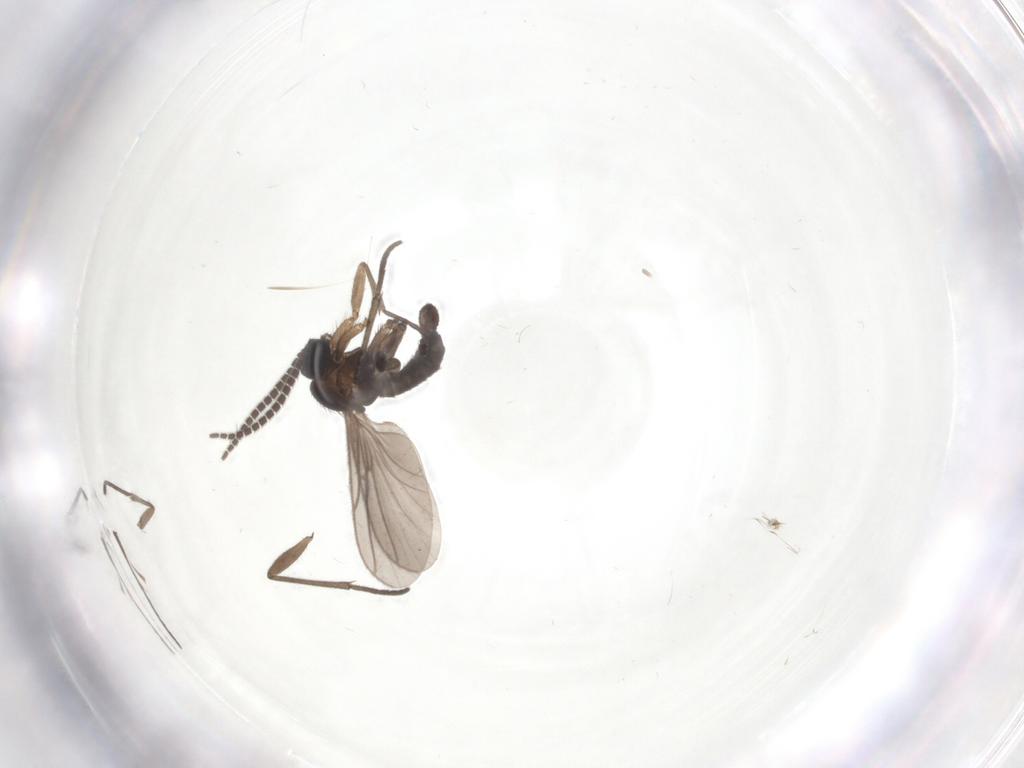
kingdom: Animalia
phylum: Arthropoda
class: Insecta
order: Diptera
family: Sciaridae
